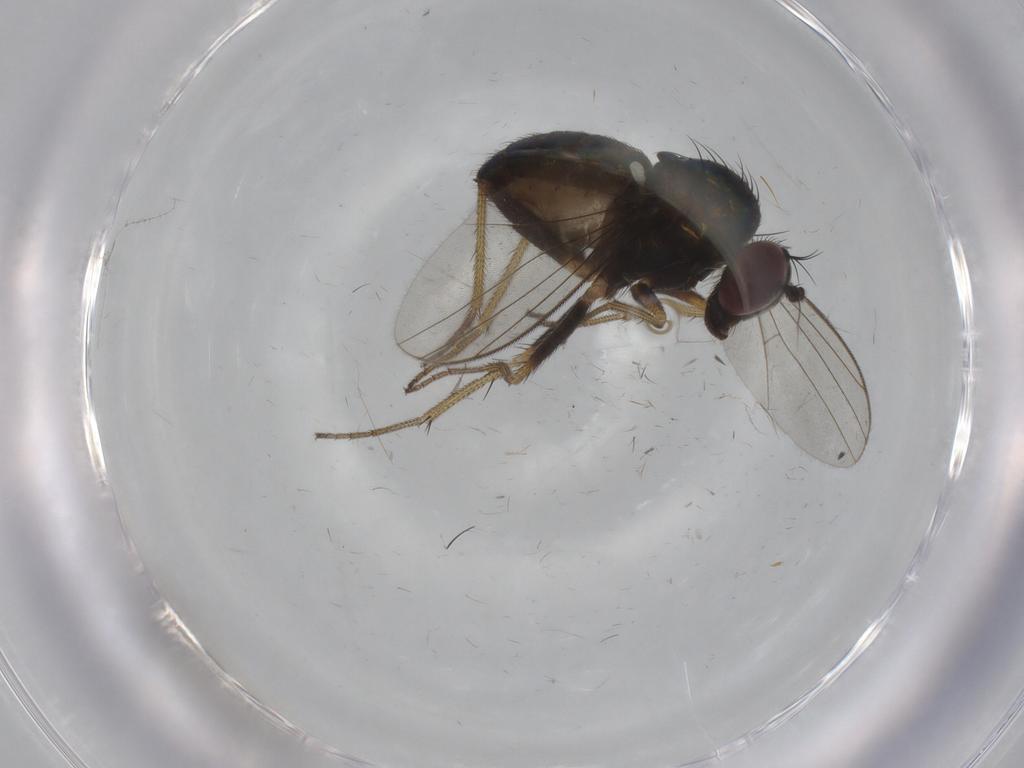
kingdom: Animalia
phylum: Arthropoda
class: Insecta
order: Diptera
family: Dolichopodidae
